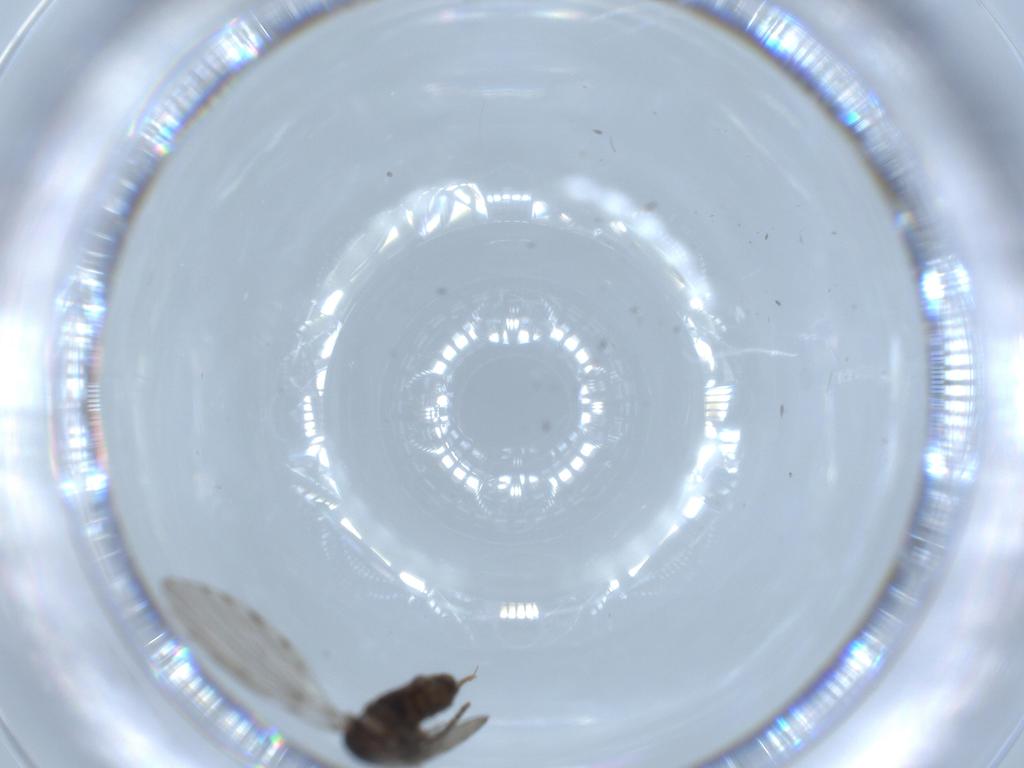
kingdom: Animalia
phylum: Arthropoda
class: Insecta
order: Diptera
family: Psychodidae
